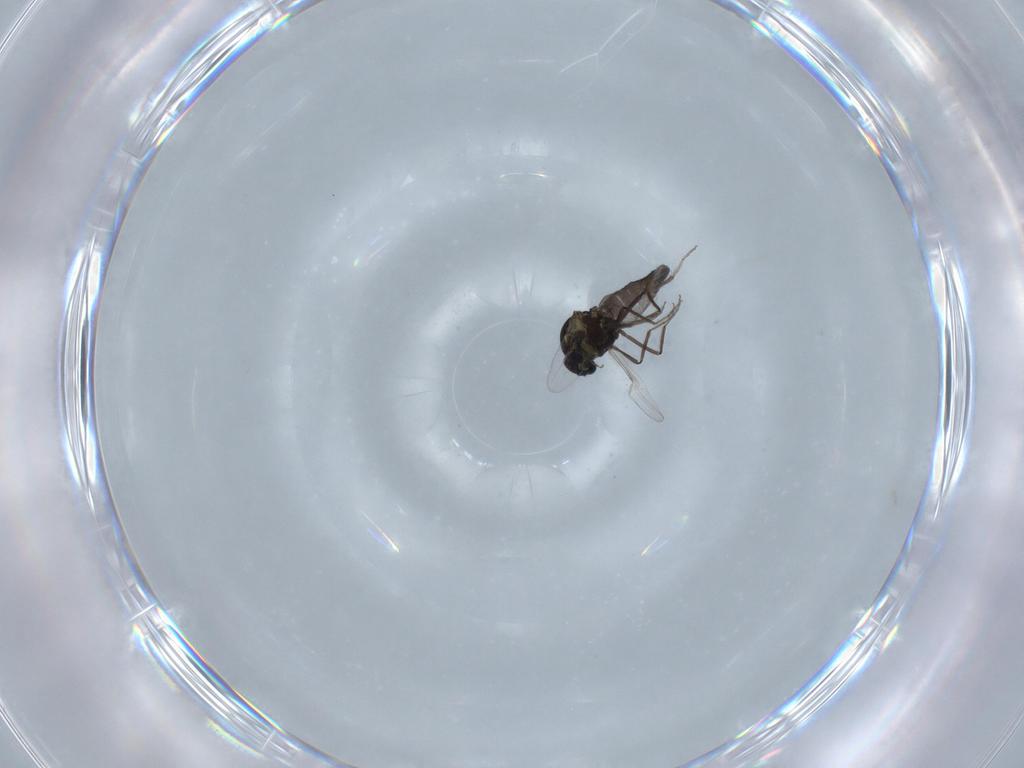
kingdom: Animalia
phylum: Arthropoda
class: Insecta
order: Diptera
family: Ceratopogonidae
